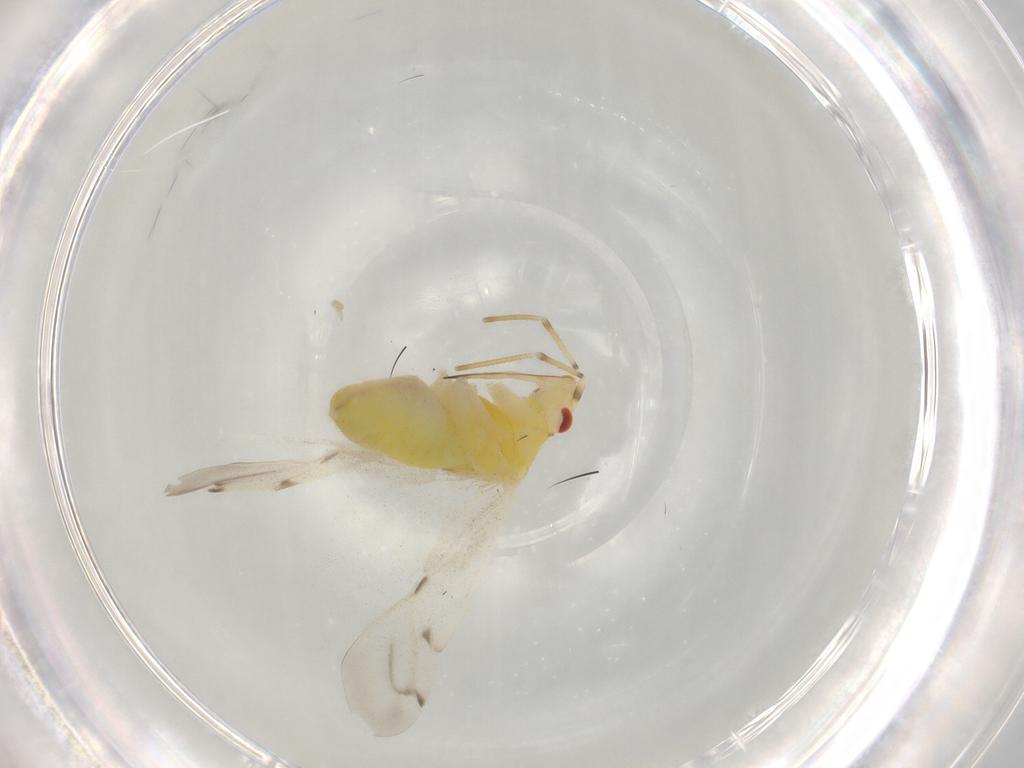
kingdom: Animalia
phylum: Arthropoda
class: Insecta
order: Hemiptera
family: Miridae
